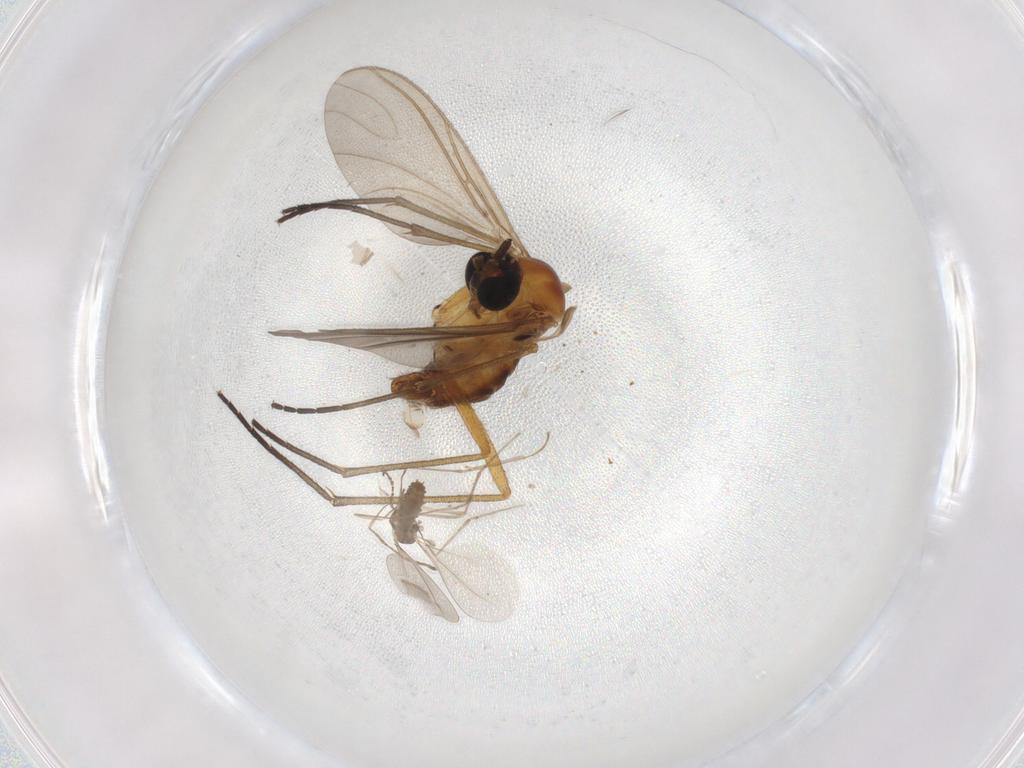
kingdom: Animalia
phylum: Arthropoda
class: Insecta
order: Diptera
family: Sciaridae
